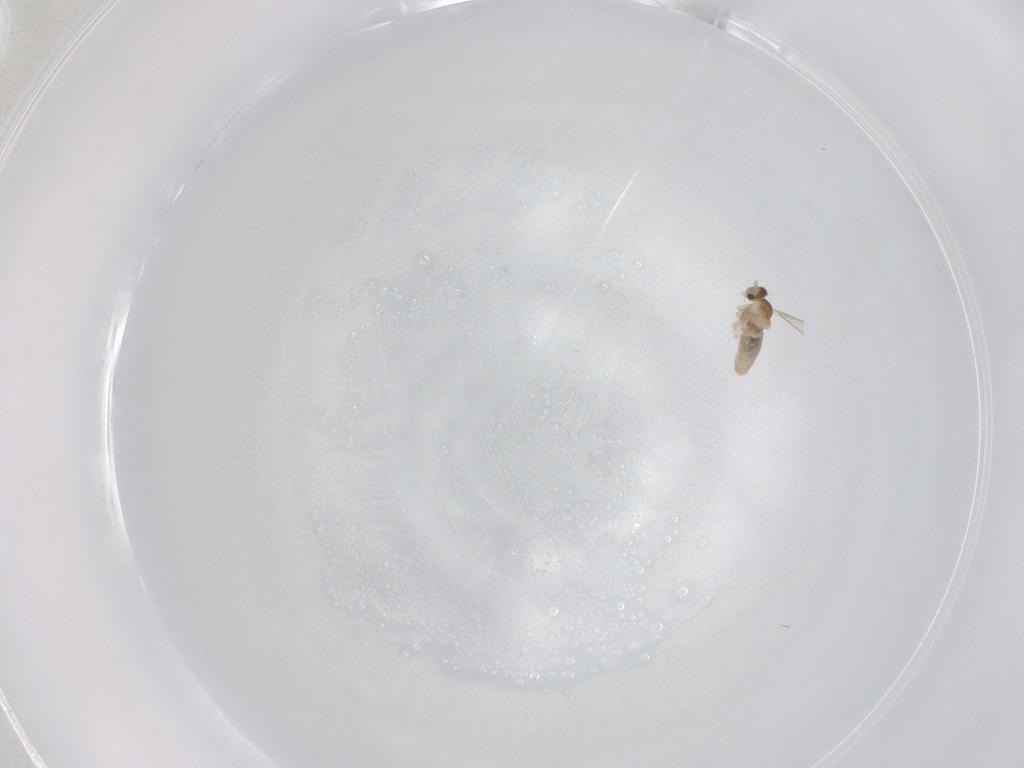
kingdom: Animalia
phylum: Arthropoda
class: Insecta
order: Diptera
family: Cecidomyiidae
